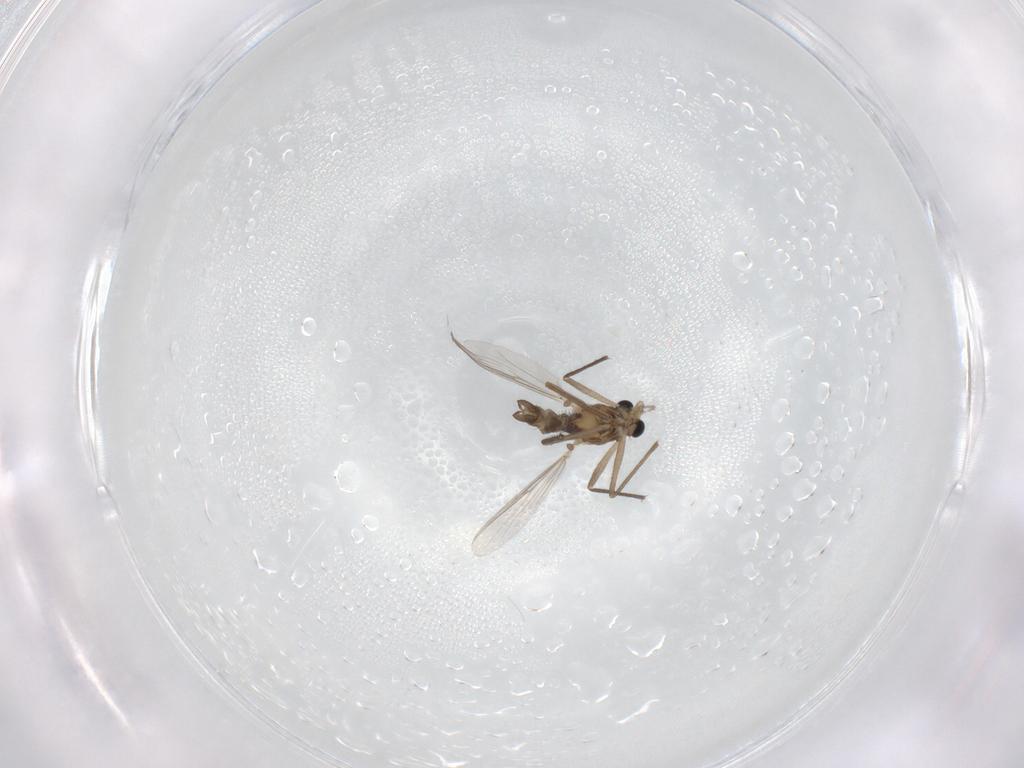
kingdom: Animalia
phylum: Arthropoda
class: Insecta
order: Diptera
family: Chironomidae
